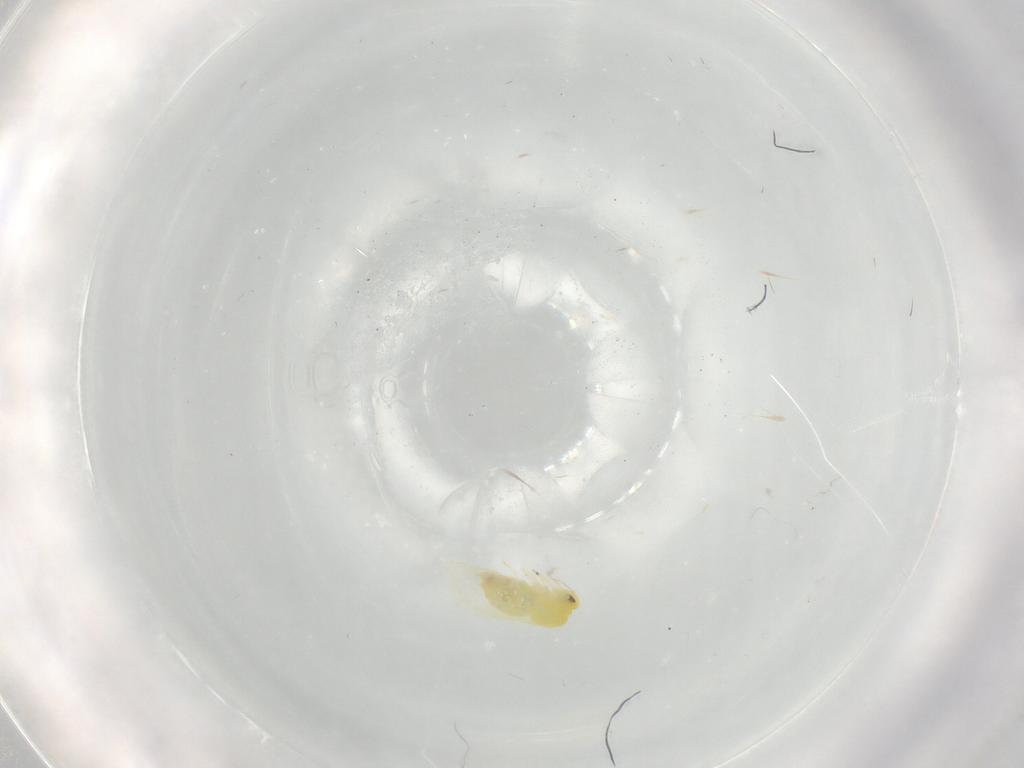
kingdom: Animalia
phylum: Arthropoda
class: Insecta
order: Hemiptera
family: Aleyrodidae
